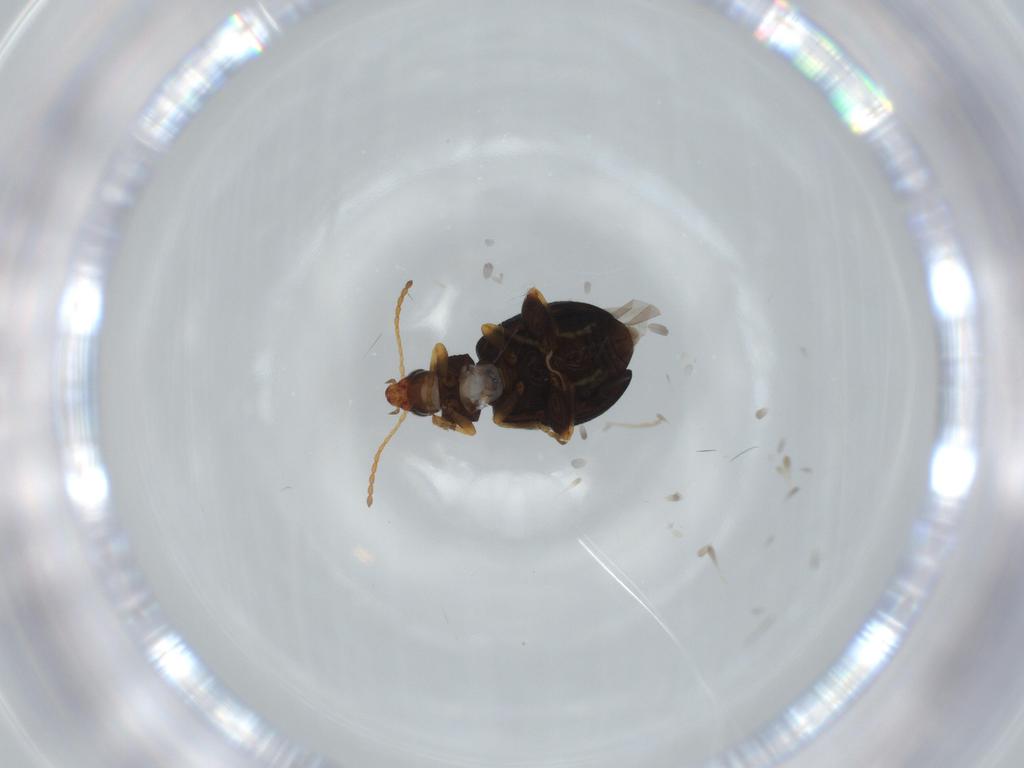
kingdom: Animalia
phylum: Arthropoda
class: Insecta
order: Coleoptera
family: Chrysomelidae
